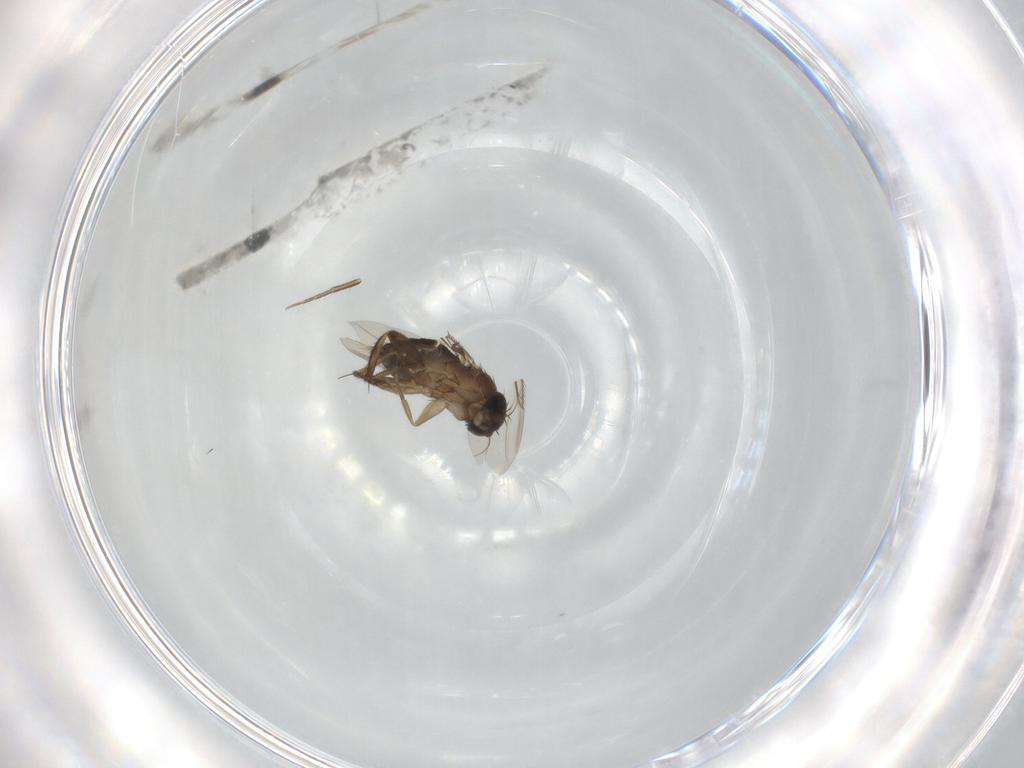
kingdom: Animalia
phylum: Arthropoda
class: Insecta
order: Diptera
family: Phoridae
